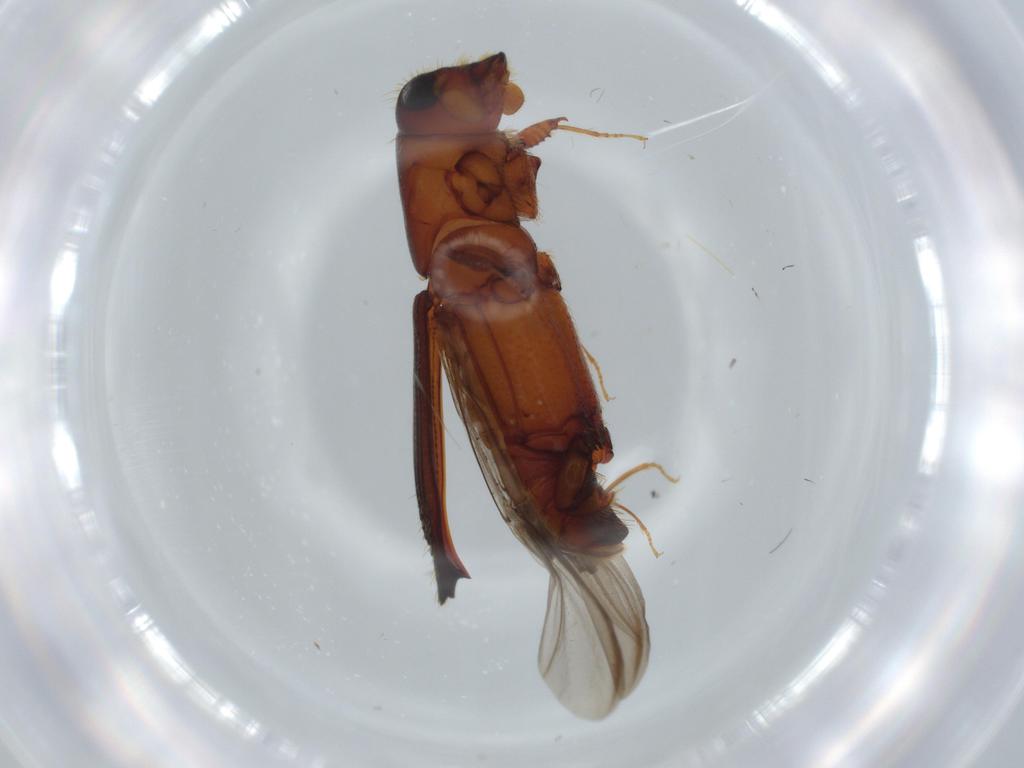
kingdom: Animalia
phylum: Arthropoda
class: Insecta
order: Coleoptera
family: Curculionidae
